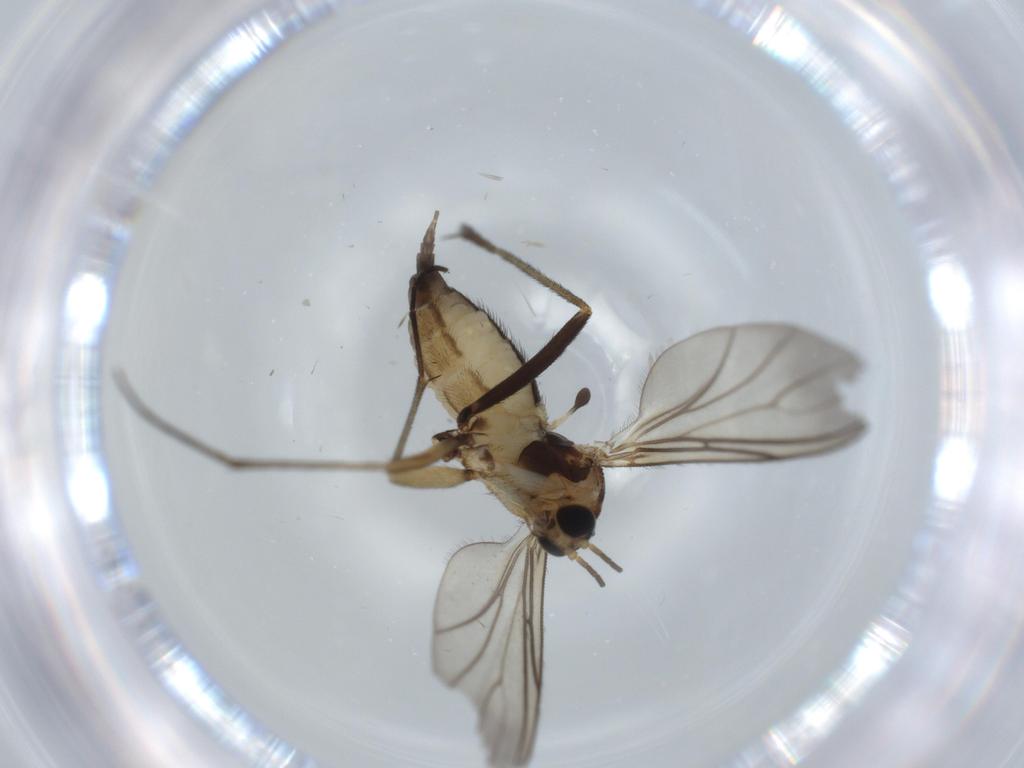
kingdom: Animalia
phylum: Arthropoda
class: Insecta
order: Diptera
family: Sciaridae
